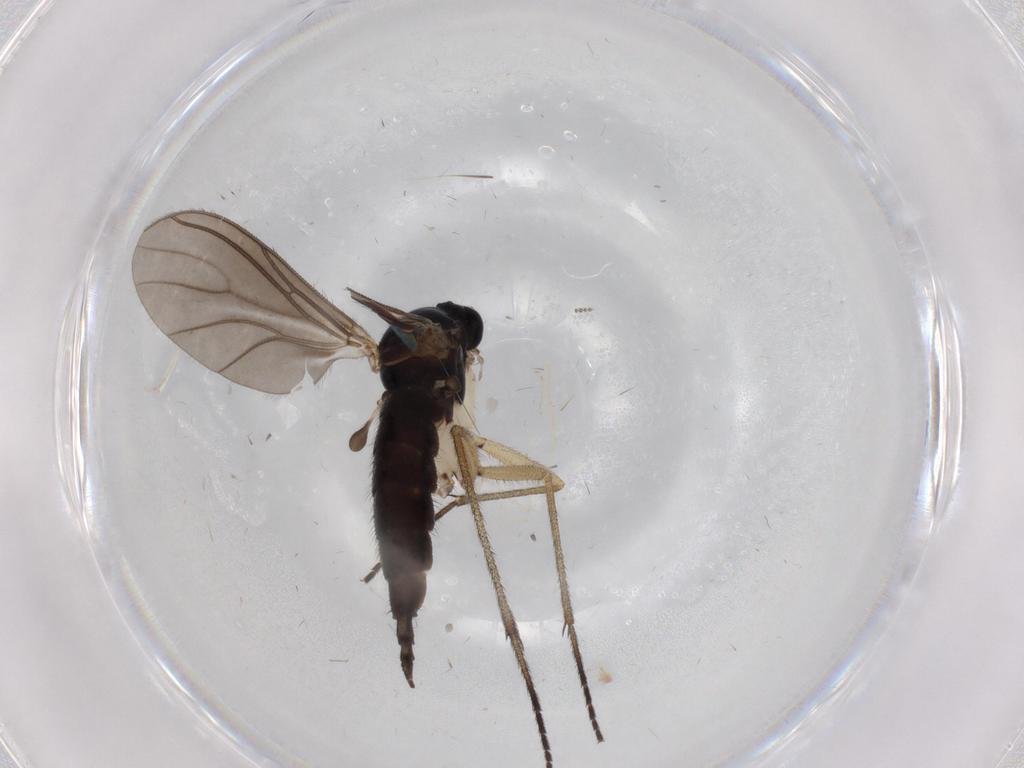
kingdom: Animalia
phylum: Arthropoda
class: Insecta
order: Diptera
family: Sciaridae
